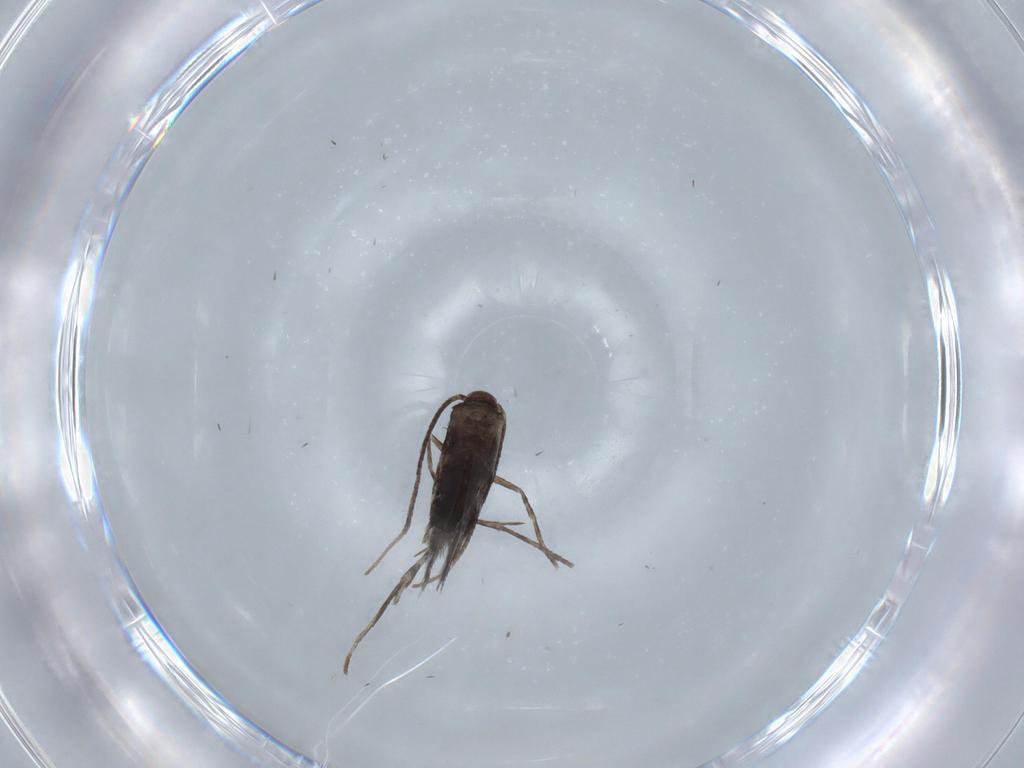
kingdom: Animalia
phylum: Arthropoda
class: Insecta
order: Lepidoptera
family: Gracillariidae
